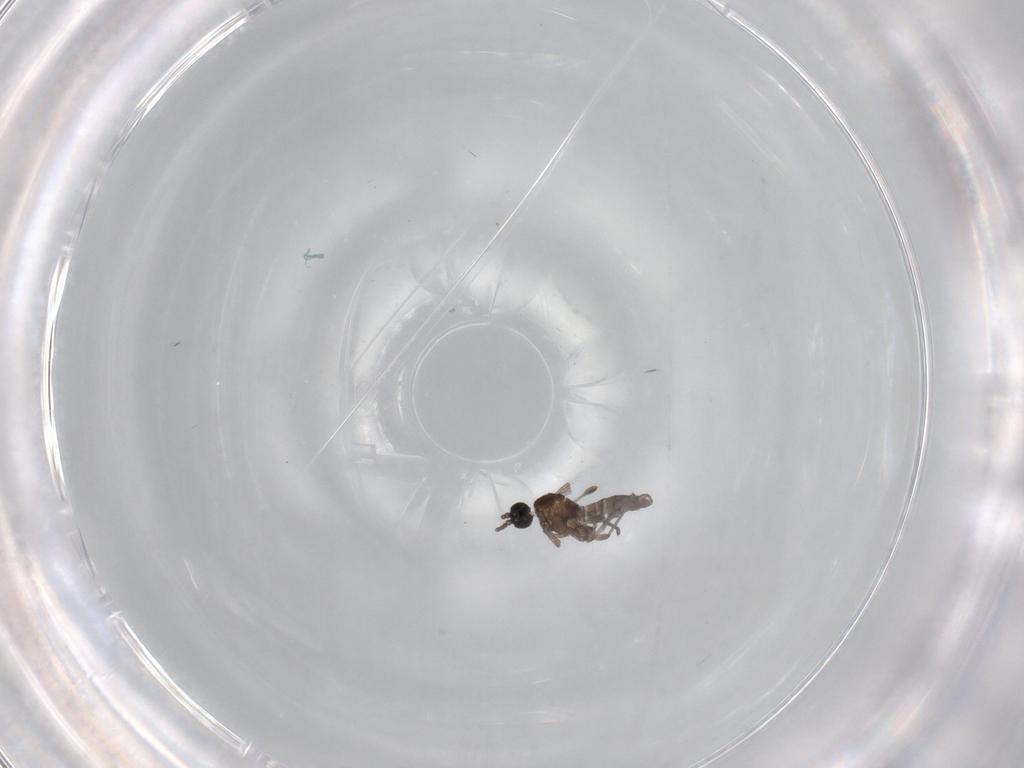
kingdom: Animalia
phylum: Arthropoda
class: Insecta
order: Diptera
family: Sciaridae
